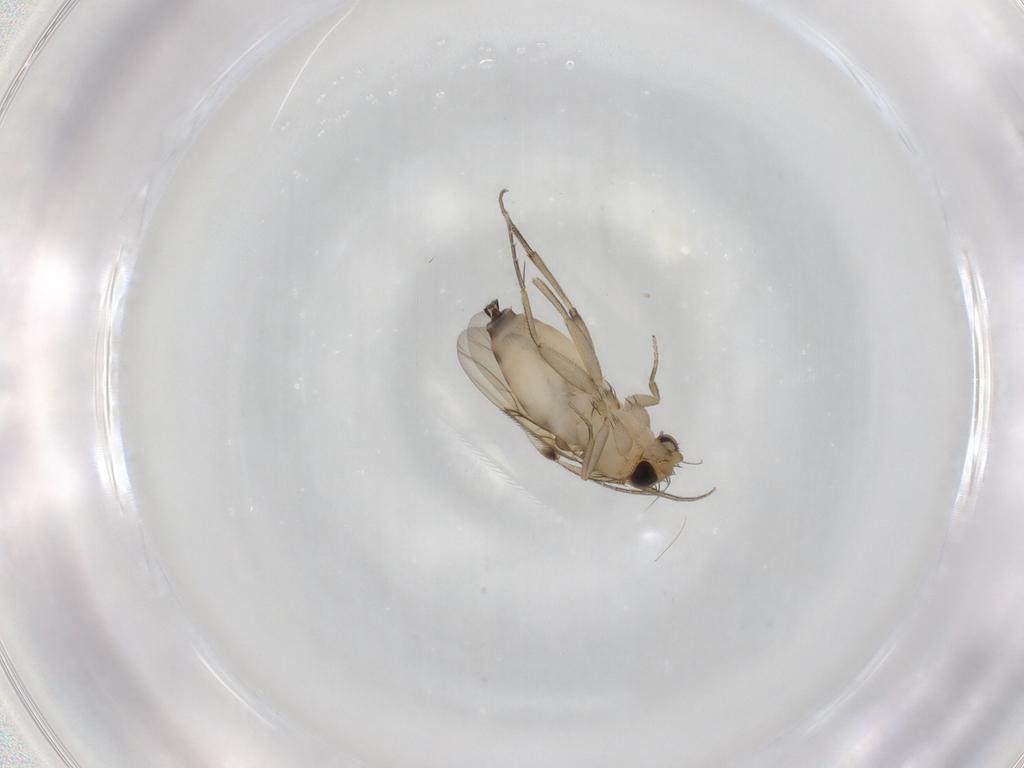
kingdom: Animalia
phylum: Arthropoda
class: Insecta
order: Diptera
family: Phoridae
